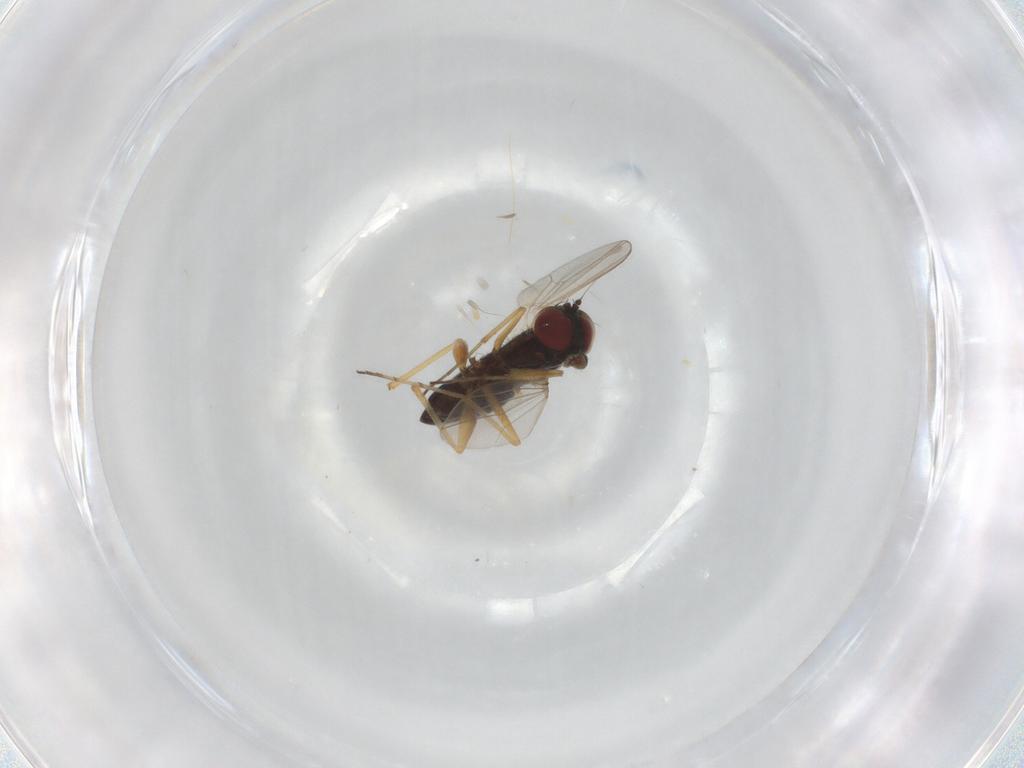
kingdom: Animalia
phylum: Arthropoda
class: Insecta
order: Diptera
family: Dolichopodidae
